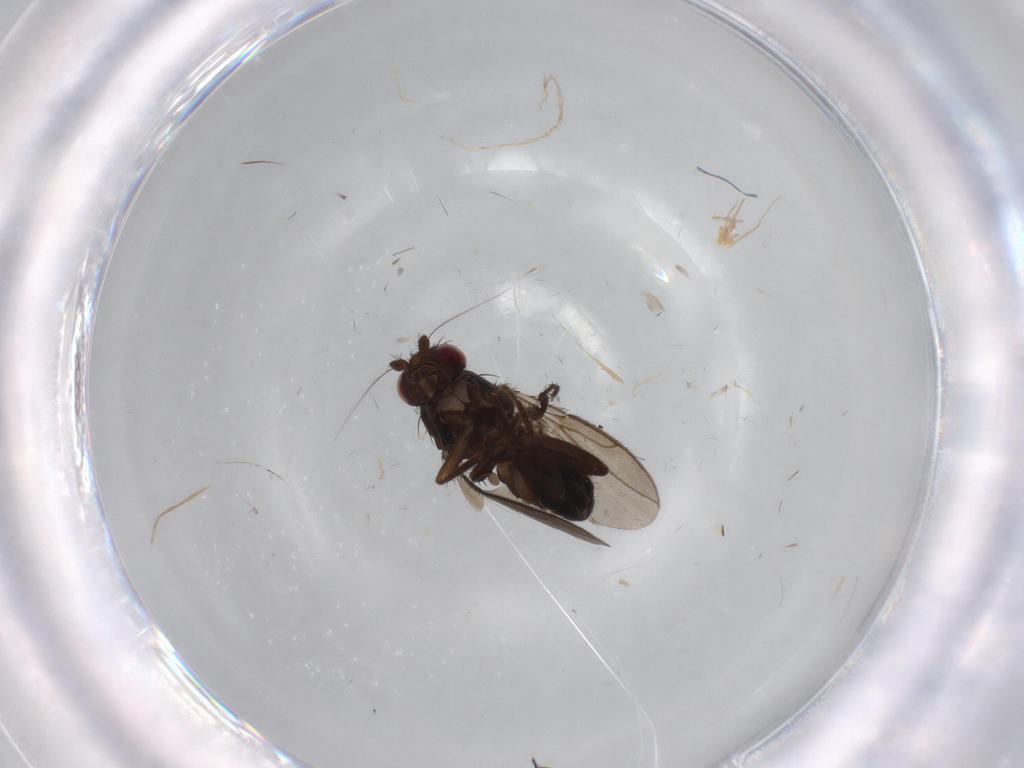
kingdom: Animalia
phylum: Arthropoda
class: Insecta
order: Diptera
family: Sphaeroceridae
